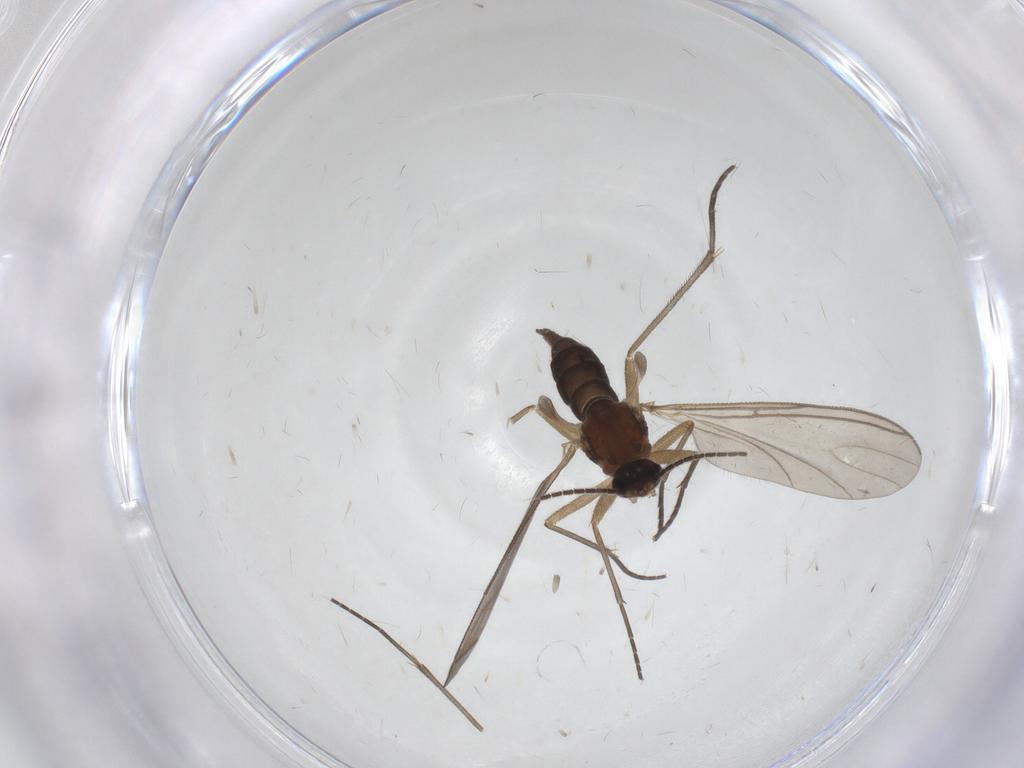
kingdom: Animalia
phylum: Arthropoda
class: Insecta
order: Diptera
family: Sciaridae
